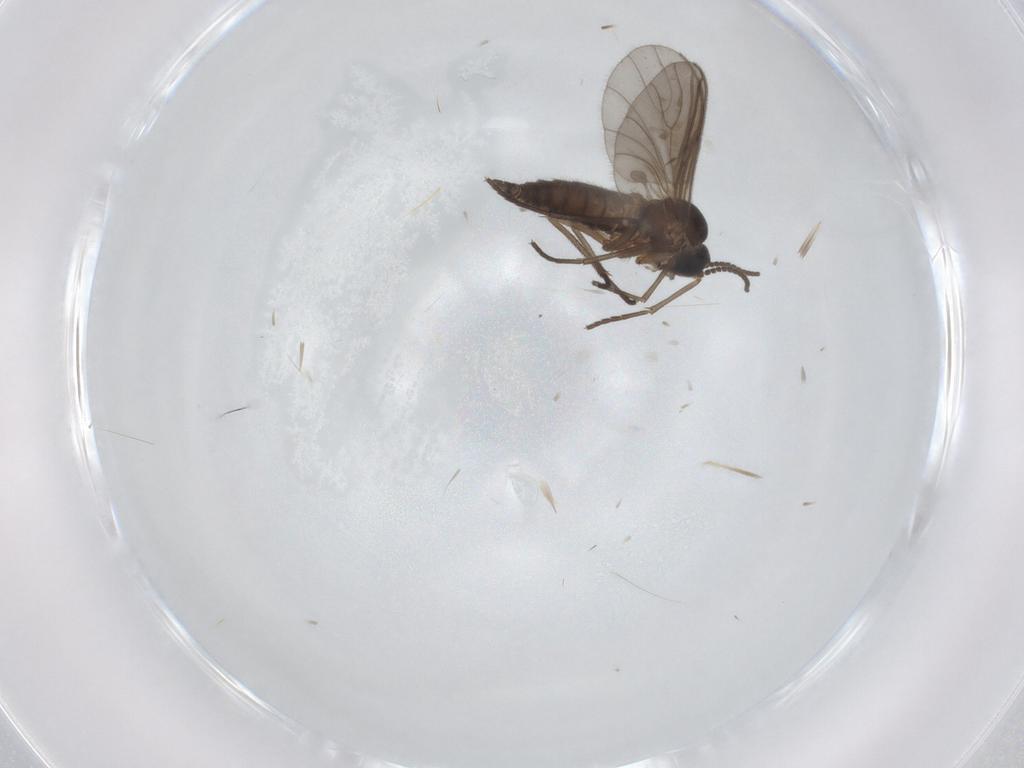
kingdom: Animalia
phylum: Arthropoda
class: Insecta
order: Diptera
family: Sciaridae
